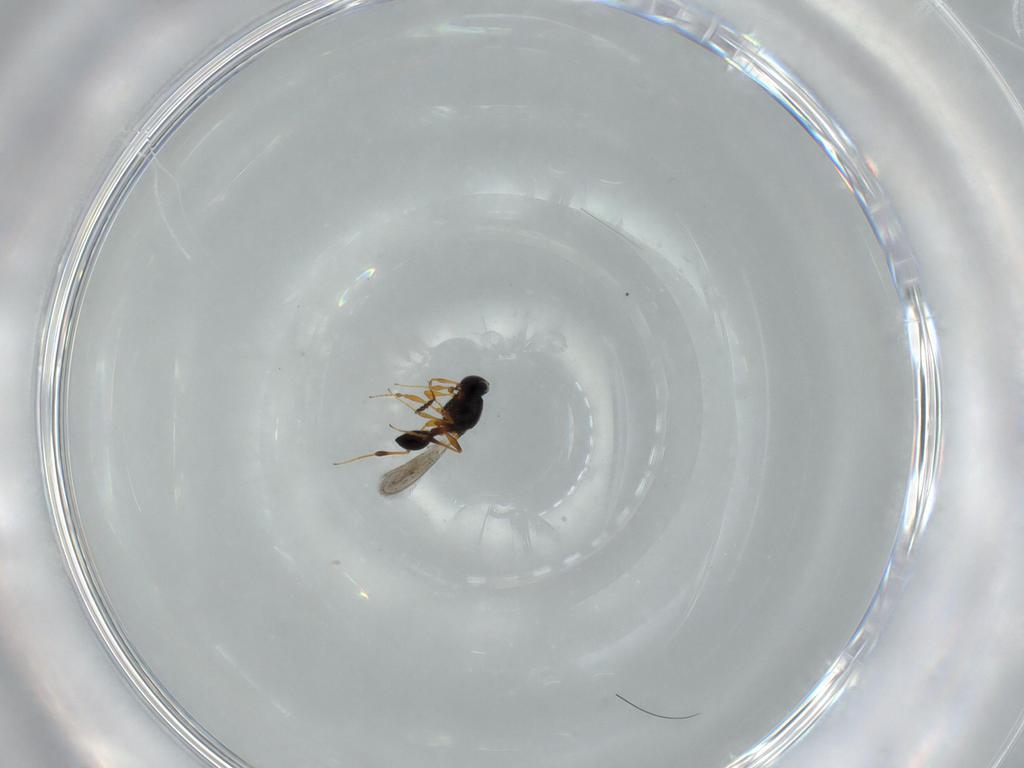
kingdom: Animalia
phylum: Arthropoda
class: Insecta
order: Hymenoptera
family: Platygastridae
